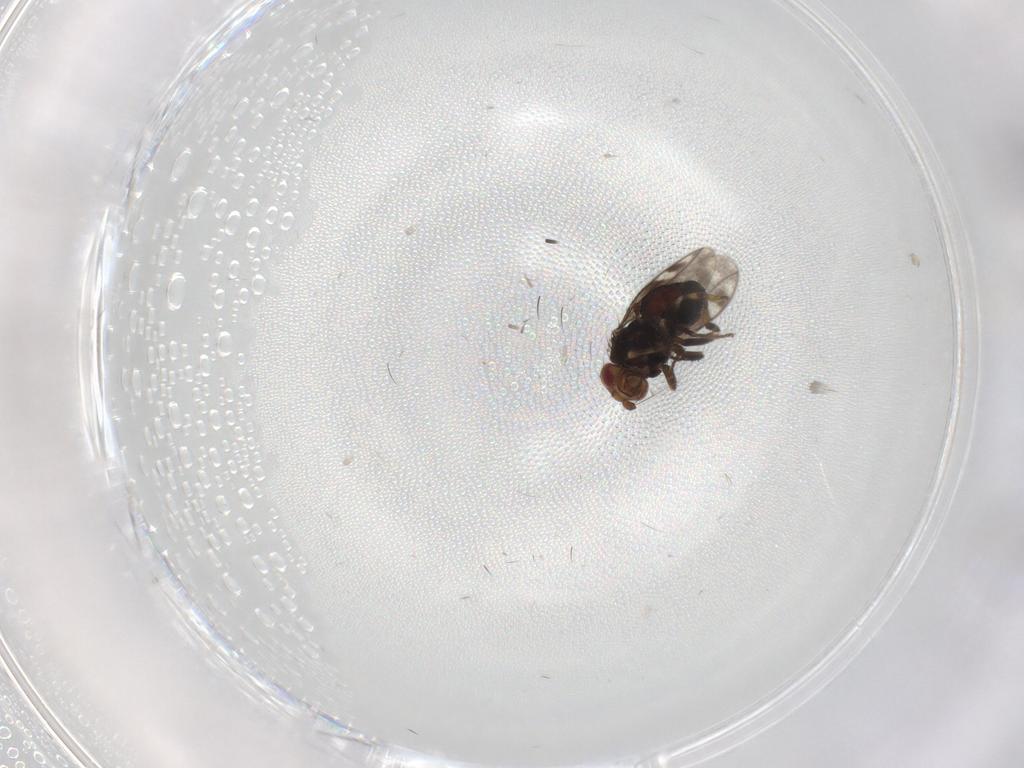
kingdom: Animalia
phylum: Arthropoda
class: Insecta
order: Diptera
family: Sphaeroceridae
